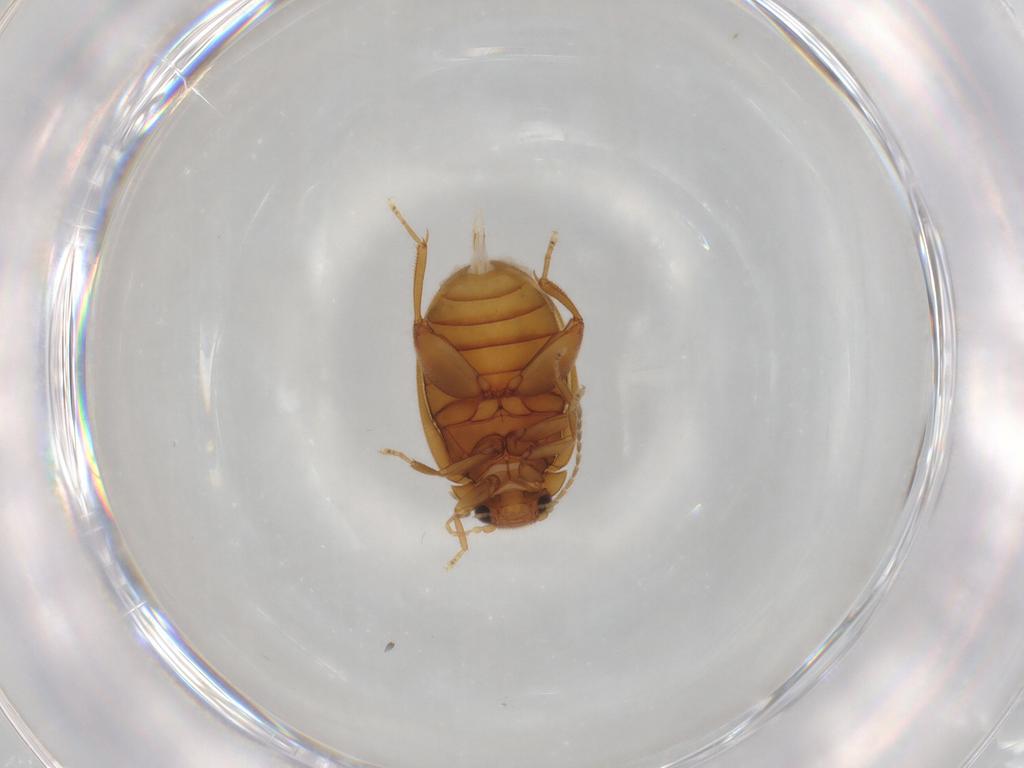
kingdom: Animalia
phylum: Arthropoda
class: Insecta
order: Coleoptera
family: Scirtidae
